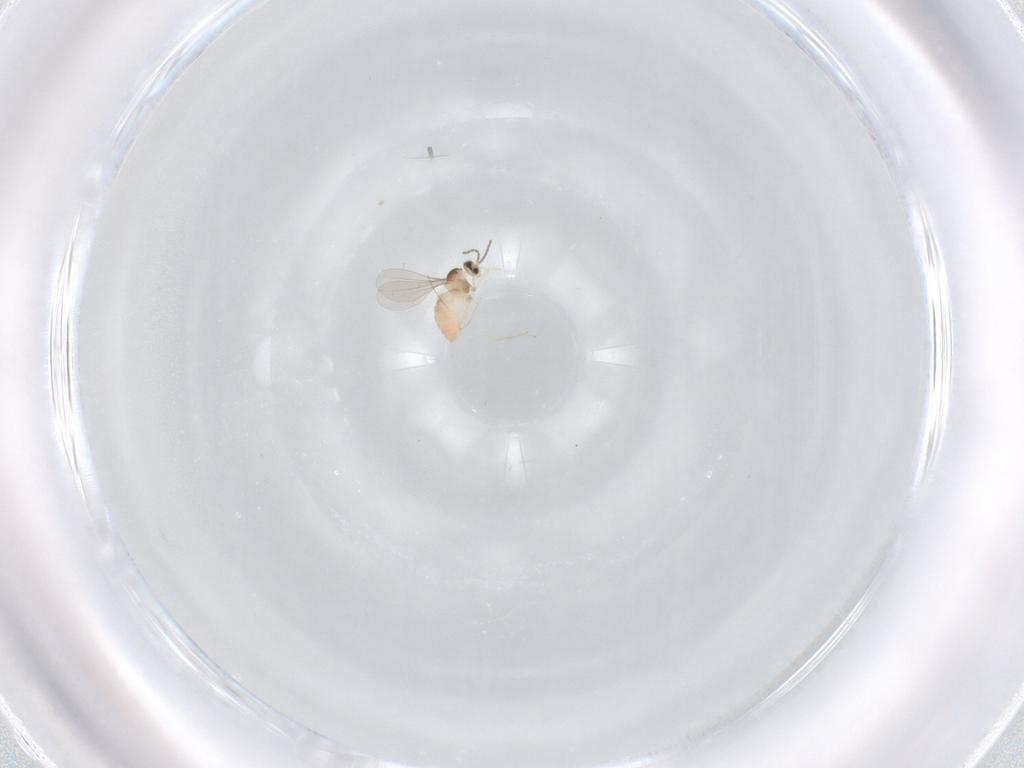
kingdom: Animalia
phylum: Arthropoda
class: Insecta
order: Diptera
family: Cecidomyiidae
